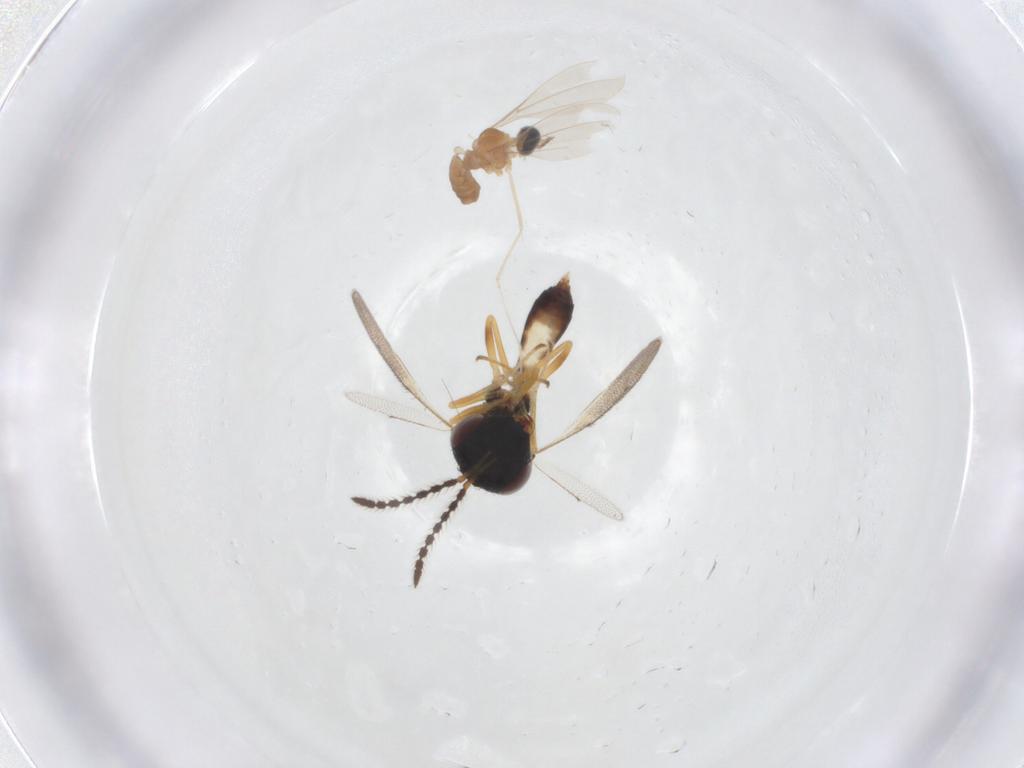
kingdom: Animalia
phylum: Arthropoda
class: Insecta
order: Diptera
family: Cecidomyiidae
